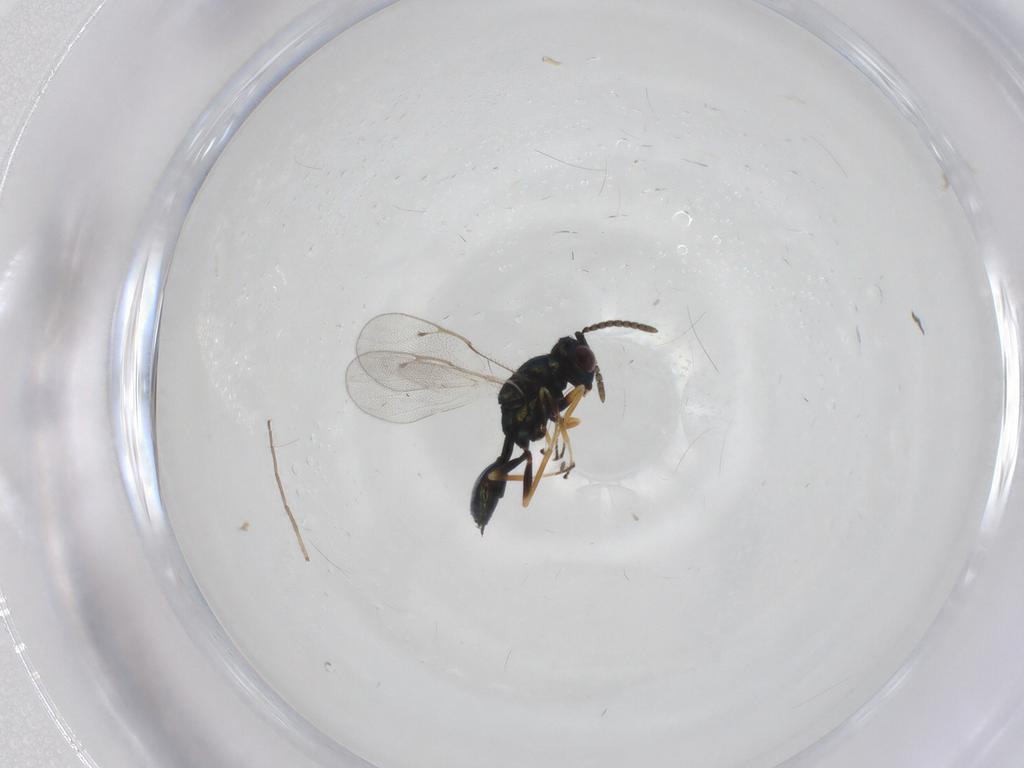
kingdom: Animalia
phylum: Arthropoda
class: Insecta
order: Hymenoptera
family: Pteromalidae
